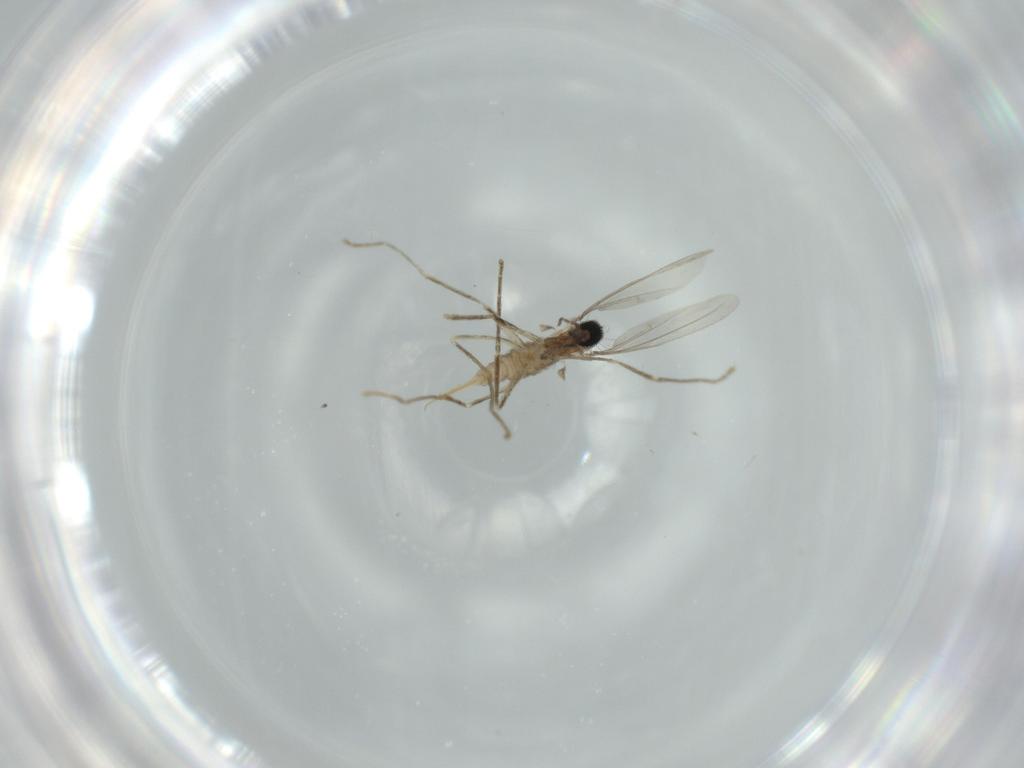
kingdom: Animalia
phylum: Arthropoda
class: Insecta
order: Diptera
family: Cecidomyiidae
